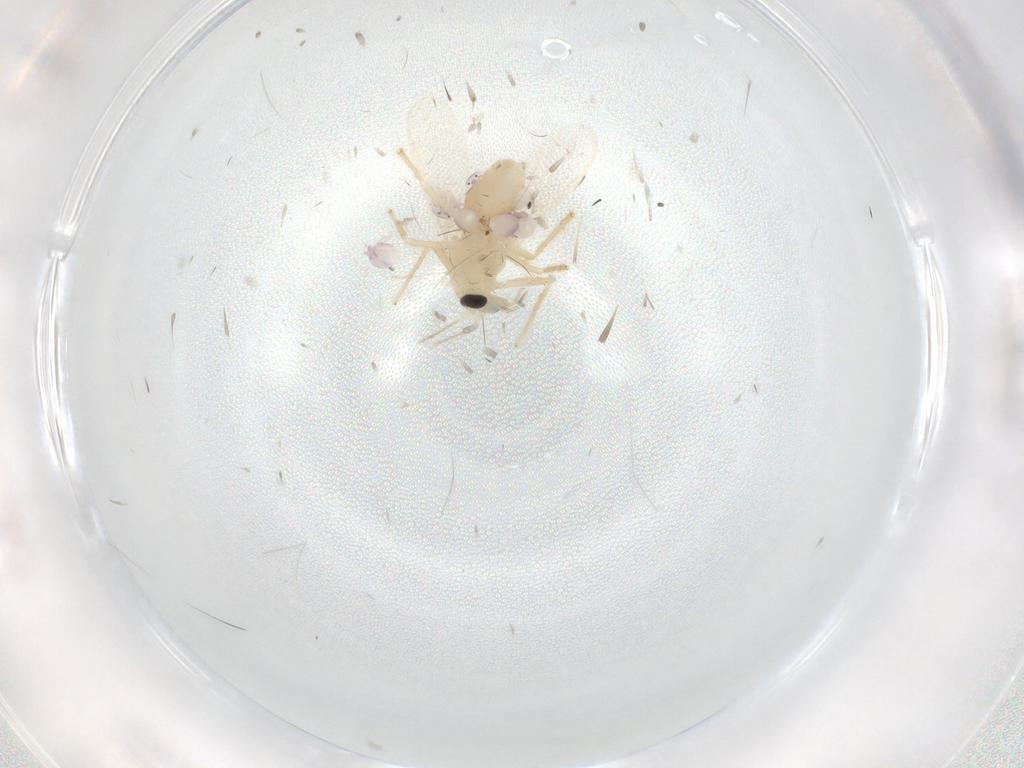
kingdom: Animalia
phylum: Arthropoda
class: Insecta
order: Diptera
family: Chironomidae
